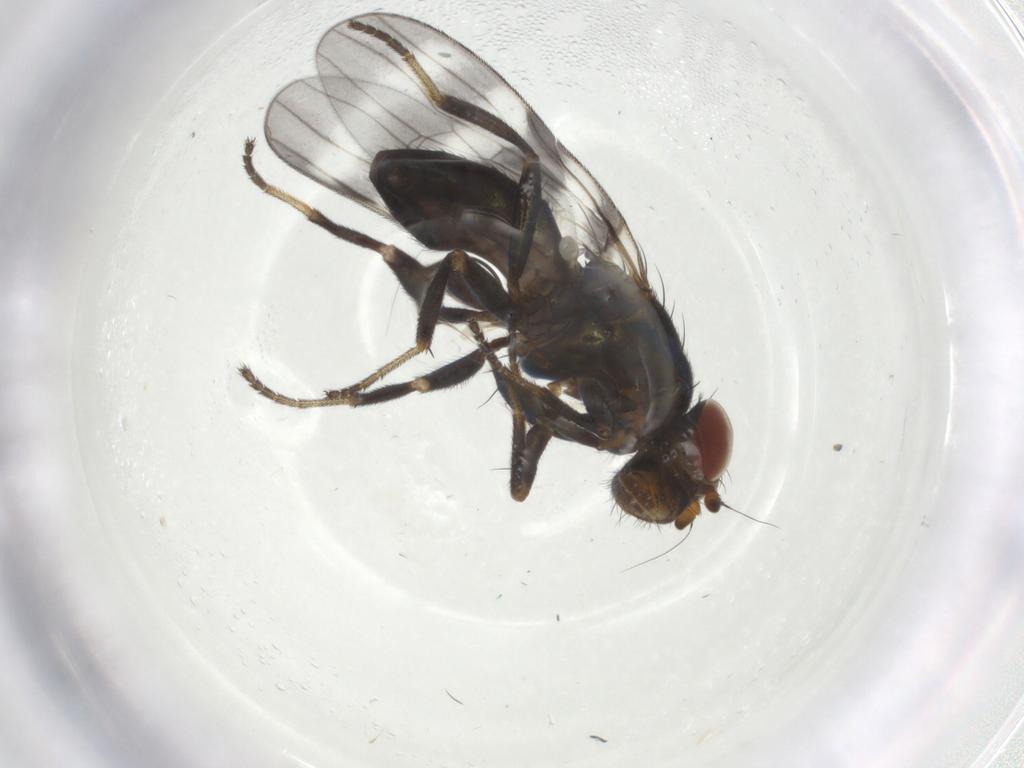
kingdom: Animalia
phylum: Arthropoda
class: Insecta
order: Diptera
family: Ulidiidae
